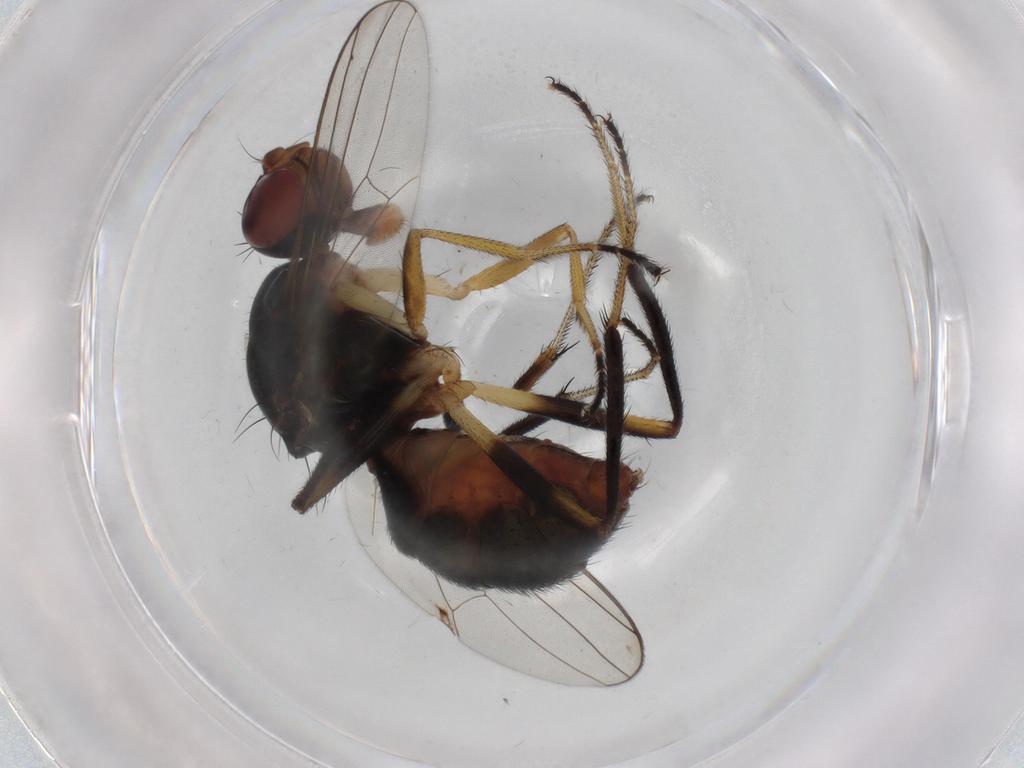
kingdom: Animalia
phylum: Arthropoda
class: Insecta
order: Diptera
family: Sepsidae
